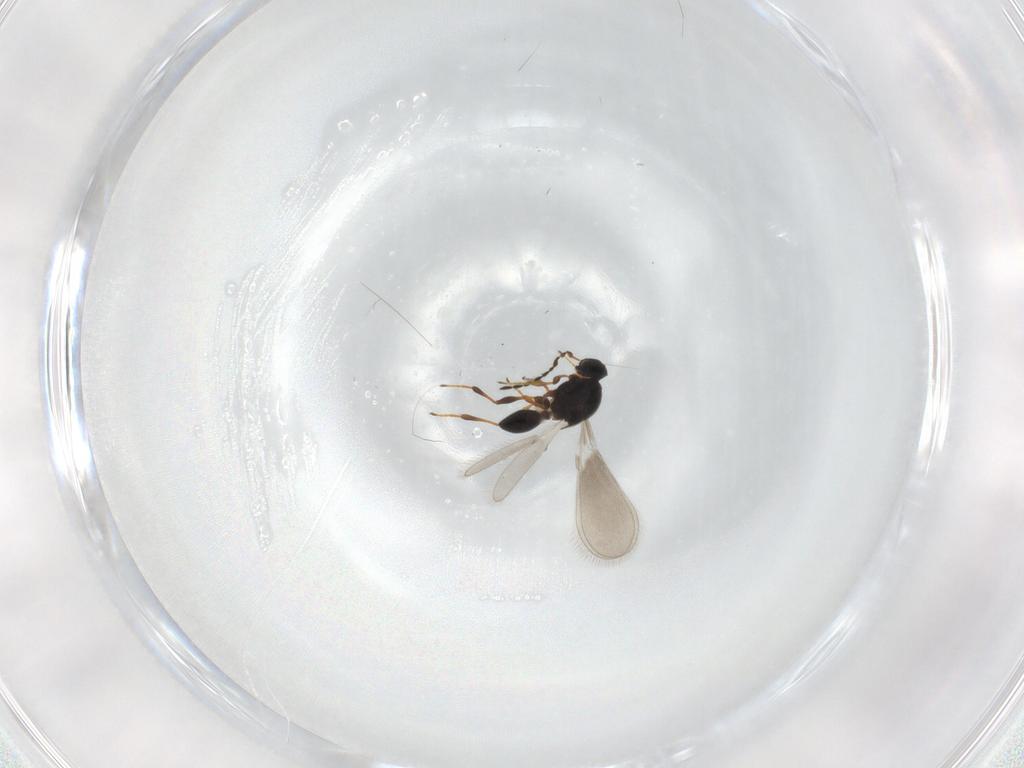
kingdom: Animalia
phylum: Arthropoda
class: Insecta
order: Hymenoptera
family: Platygastridae
